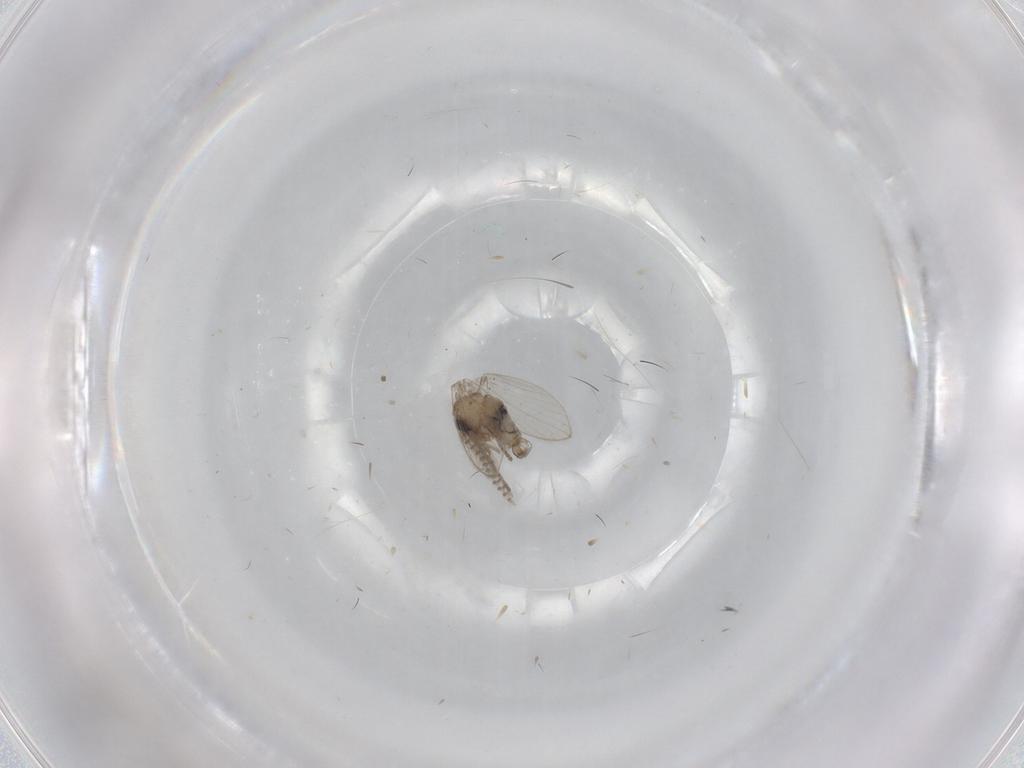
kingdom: Animalia
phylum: Arthropoda
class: Insecta
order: Diptera
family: Psychodidae
